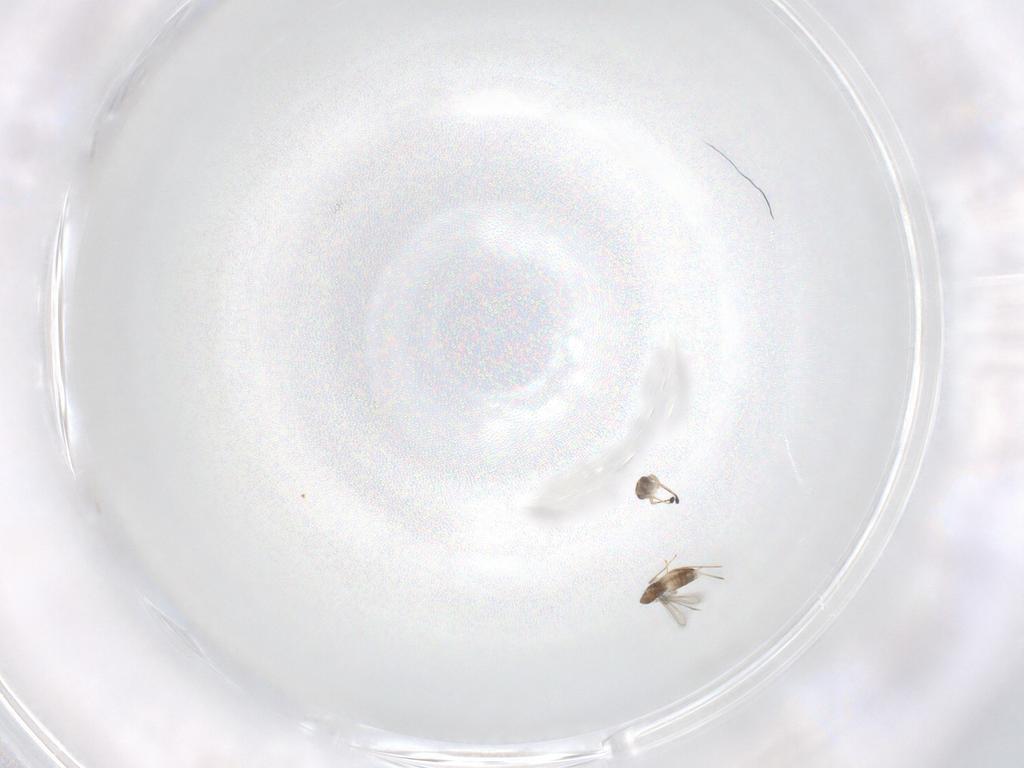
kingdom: Animalia
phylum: Arthropoda
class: Insecta
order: Hymenoptera
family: Mymaridae
